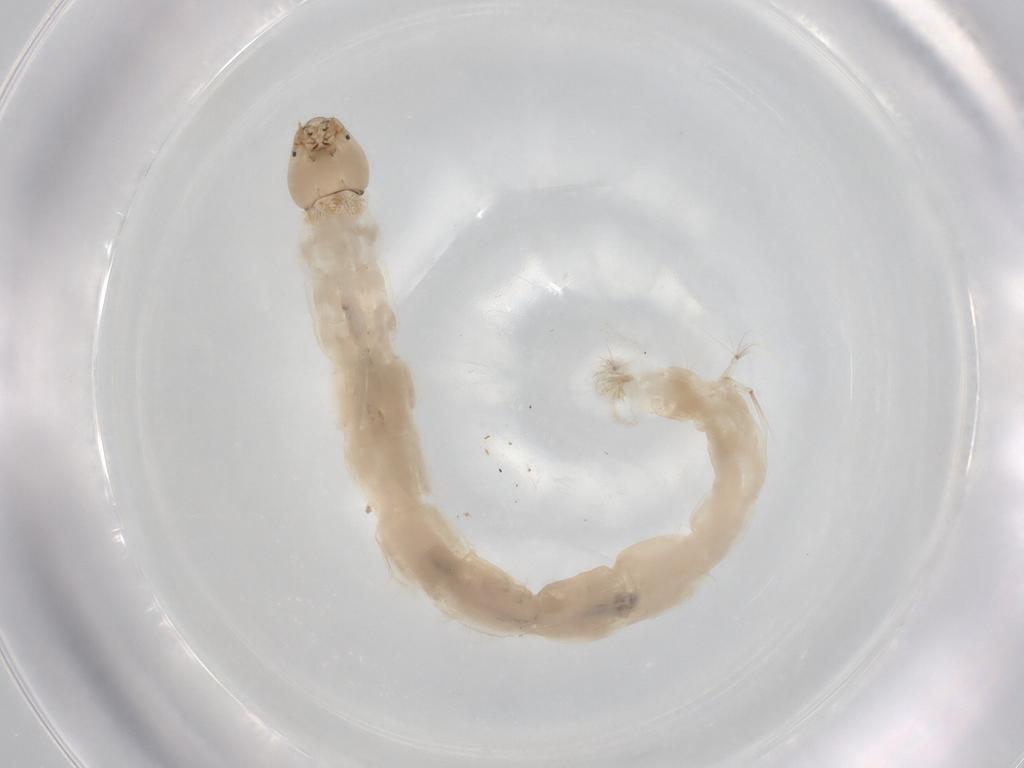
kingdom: Animalia
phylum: Arthropoda
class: Insecta
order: Diptera
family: Chironomidae
